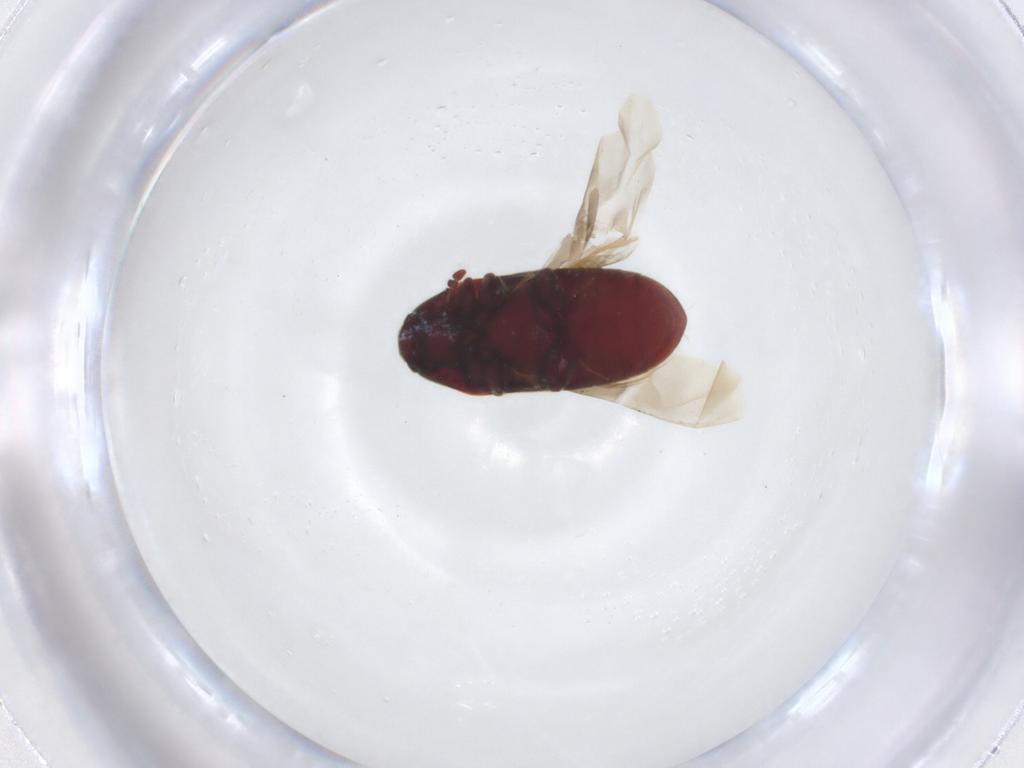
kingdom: Animalia
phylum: Arthropoda
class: Insecta
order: Coleoptera
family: Throscidae
